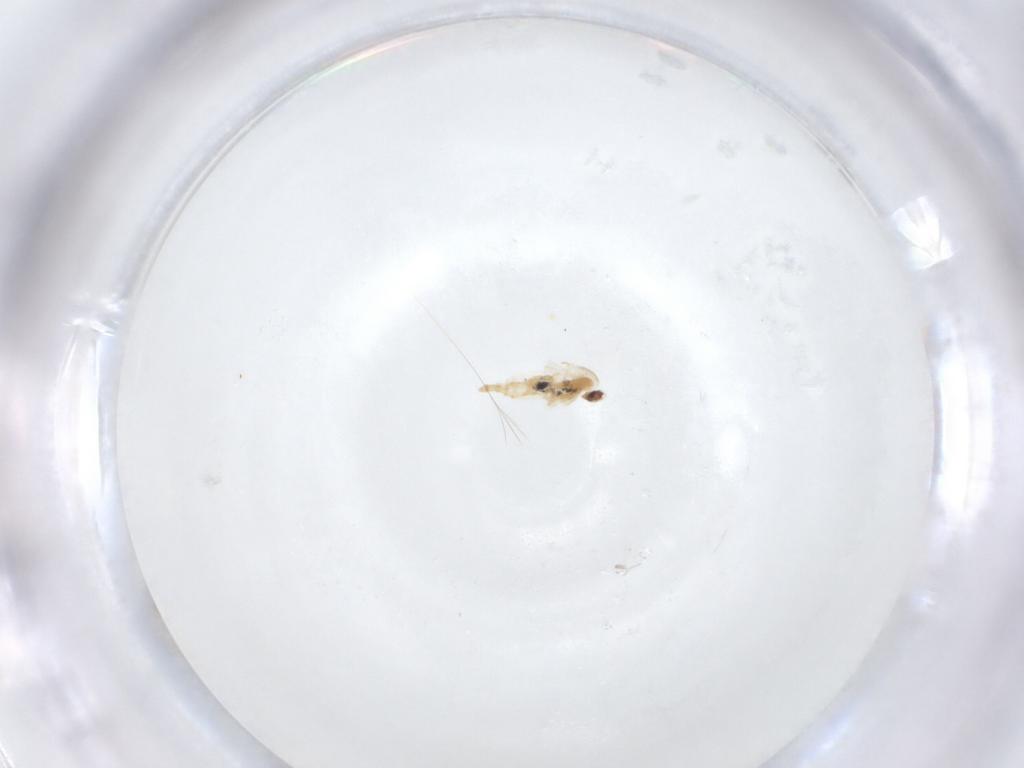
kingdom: Animalia
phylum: Arthropoda
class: Insecta
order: Diptera
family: Cecidomyiidae
